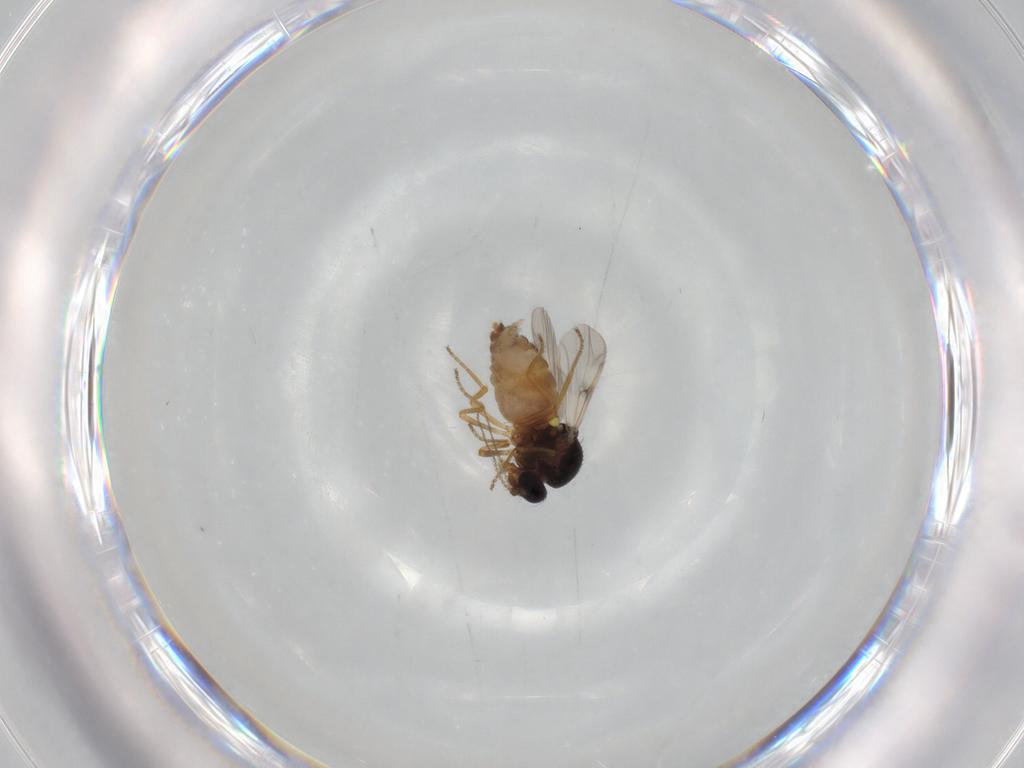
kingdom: Animalia
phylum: Arthropoda
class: Insecta
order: Diptera
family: Ceratopogonidae
